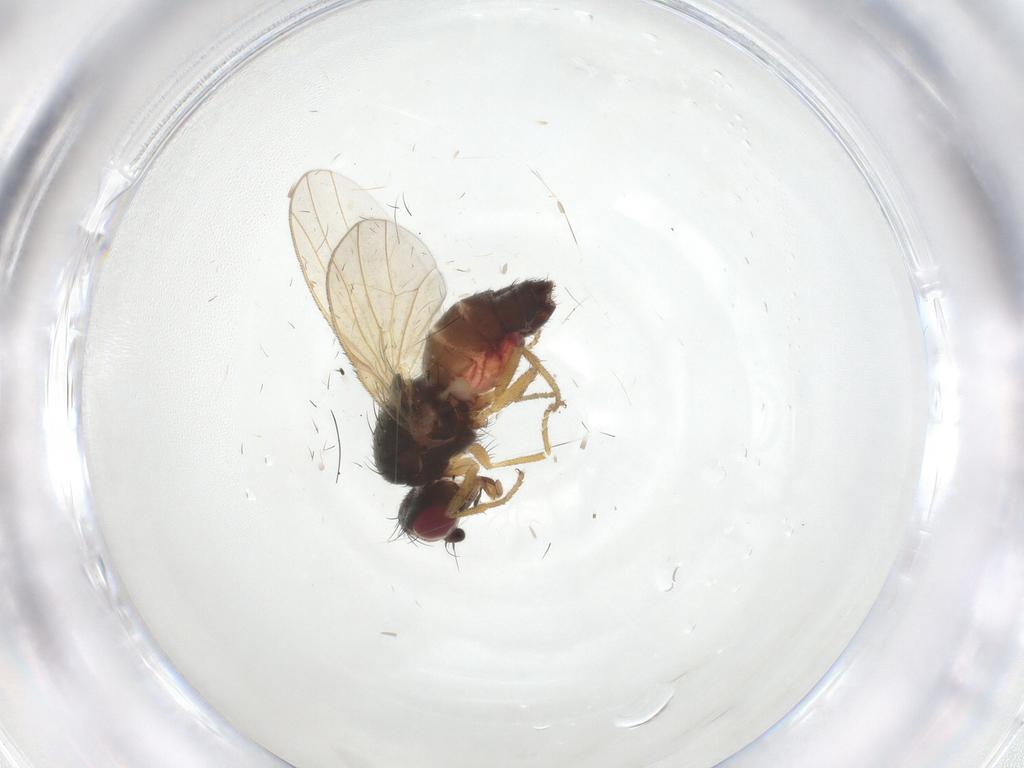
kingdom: Animalia
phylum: Arthropoda
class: Insecta
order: Diptera
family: Heleomyzidae
